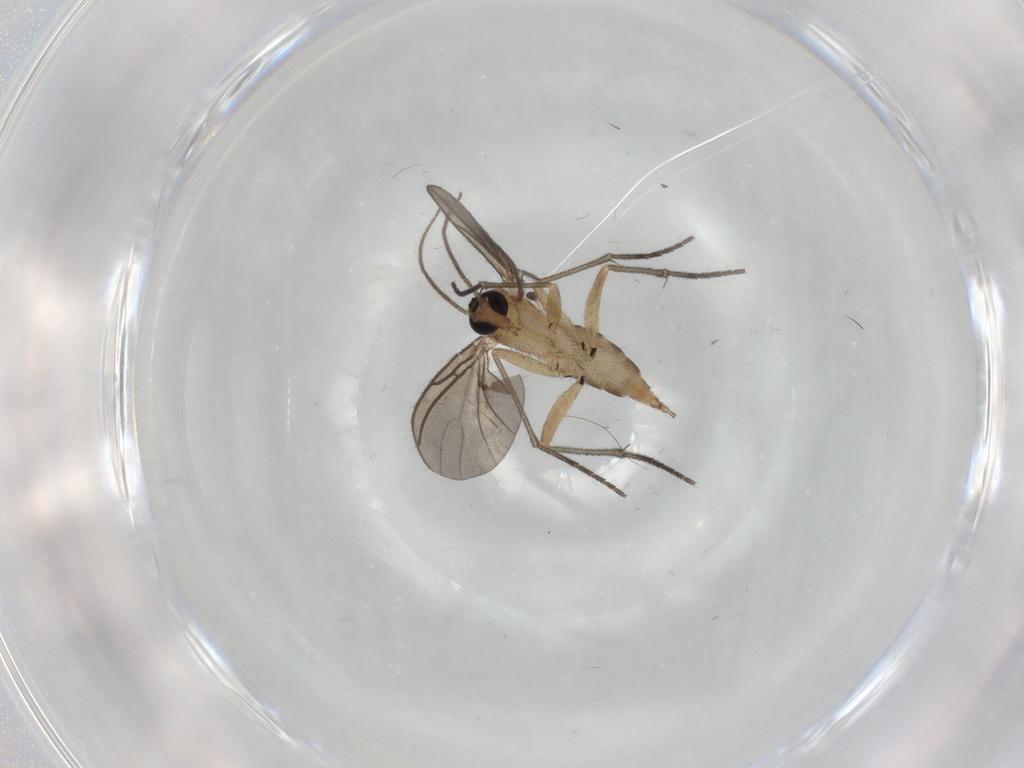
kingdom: Animalia
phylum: Arthropoda
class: Insecta
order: Diptera
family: Sciaridae
